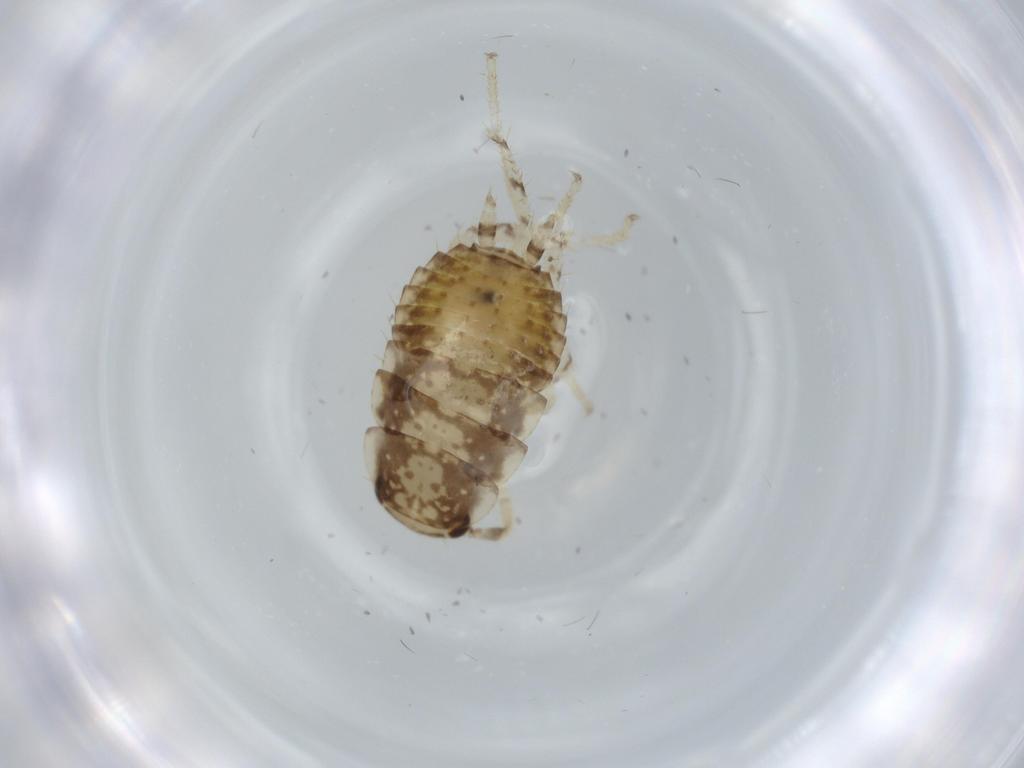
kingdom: Animalia
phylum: Arthropoda
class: Insecta
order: Blattodea
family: Ectobiidae
